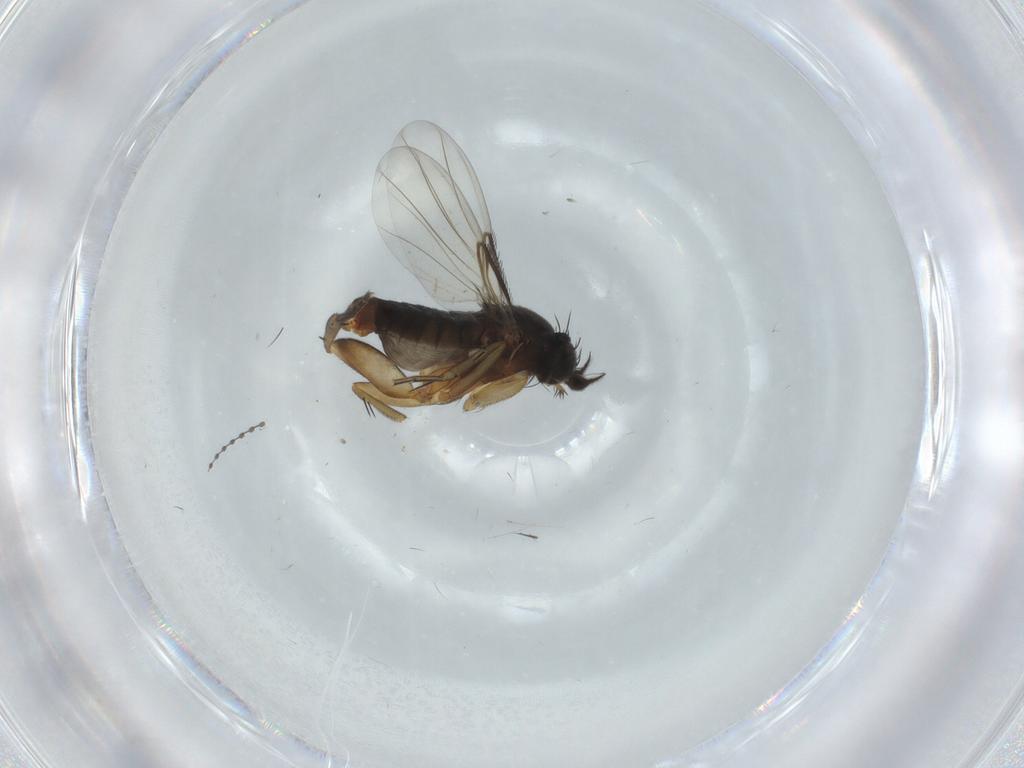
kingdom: Animalia
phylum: Arthropoda
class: Insecta
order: Diptera
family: Phoridae
